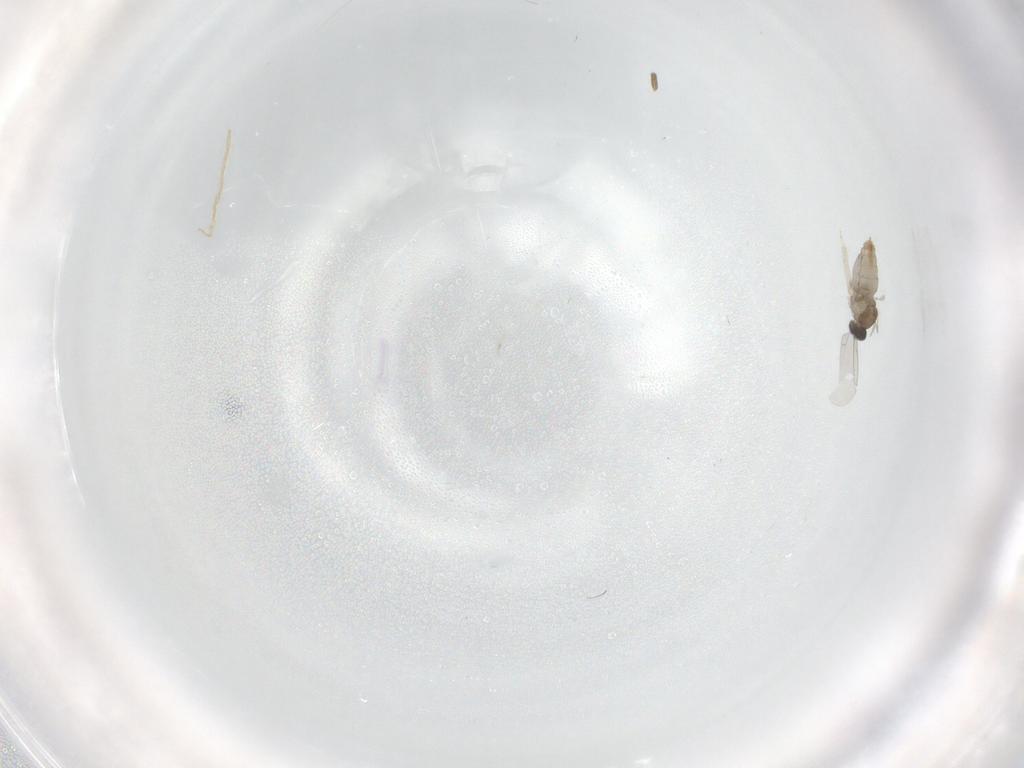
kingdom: Animalia
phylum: Arthropoda
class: Insecta
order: Diptera
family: Cecidomyiidae
